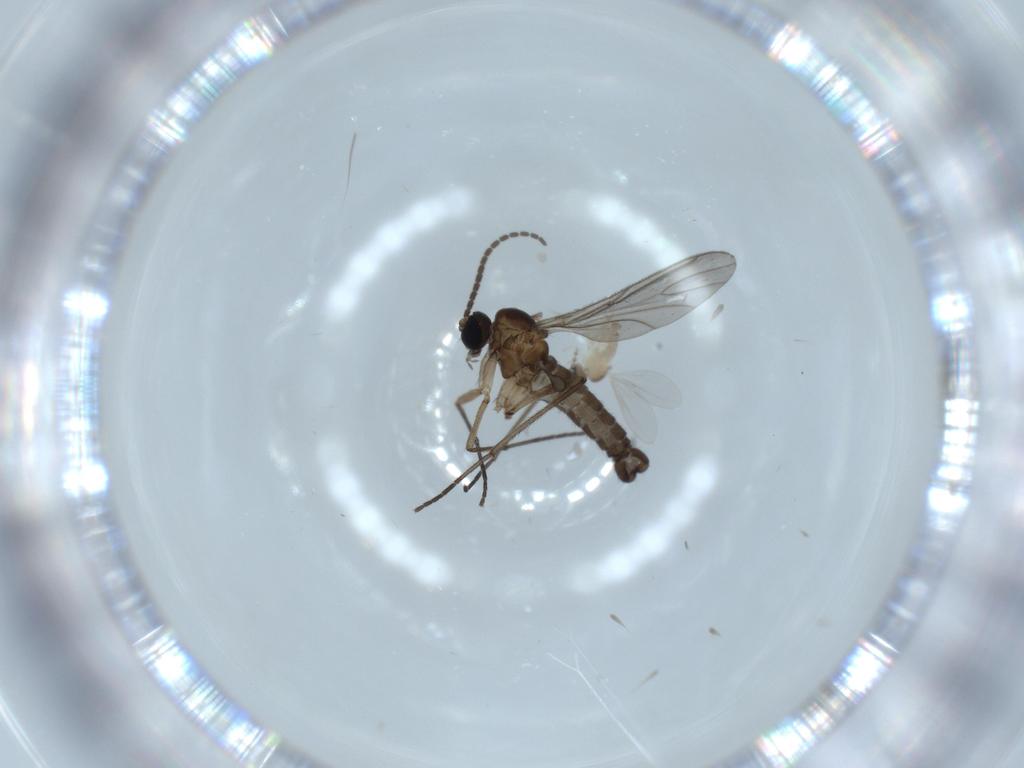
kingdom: Animalia
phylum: Arthropoda
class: Insecta
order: Diptera
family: Cecidomyiidae
